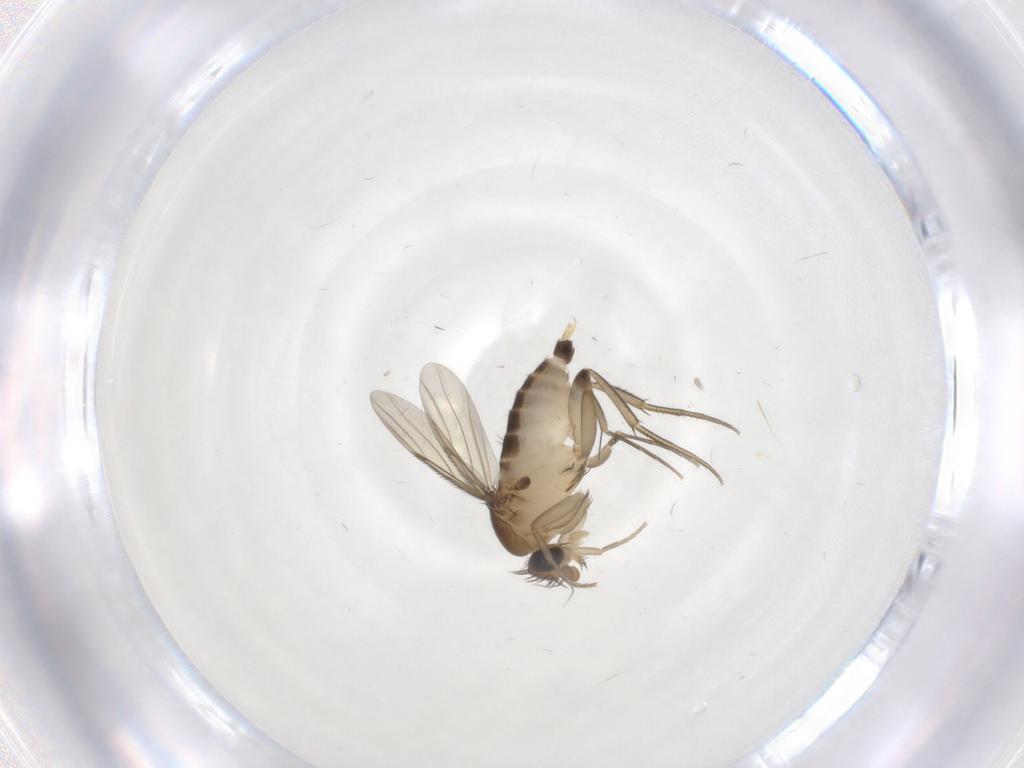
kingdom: Animalia
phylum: Arthropoda
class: Insecta
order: Diptera
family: Phoridae
